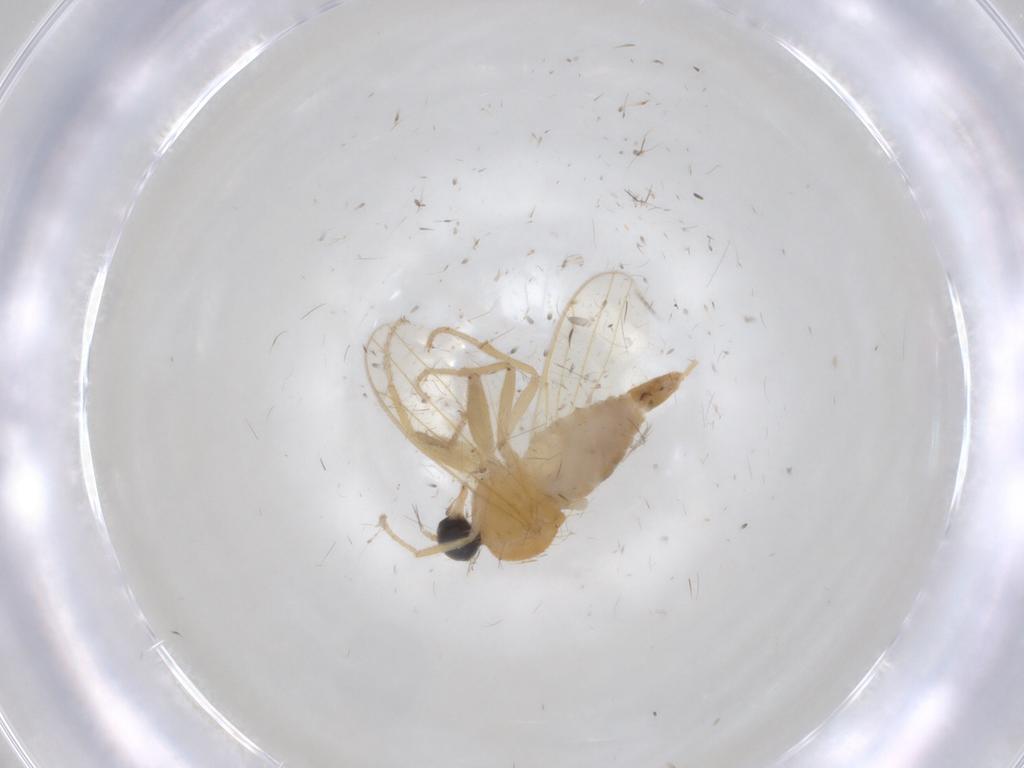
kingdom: Animalia
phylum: Arthropoda
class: Insecta
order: Diptera
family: Hybotidae
